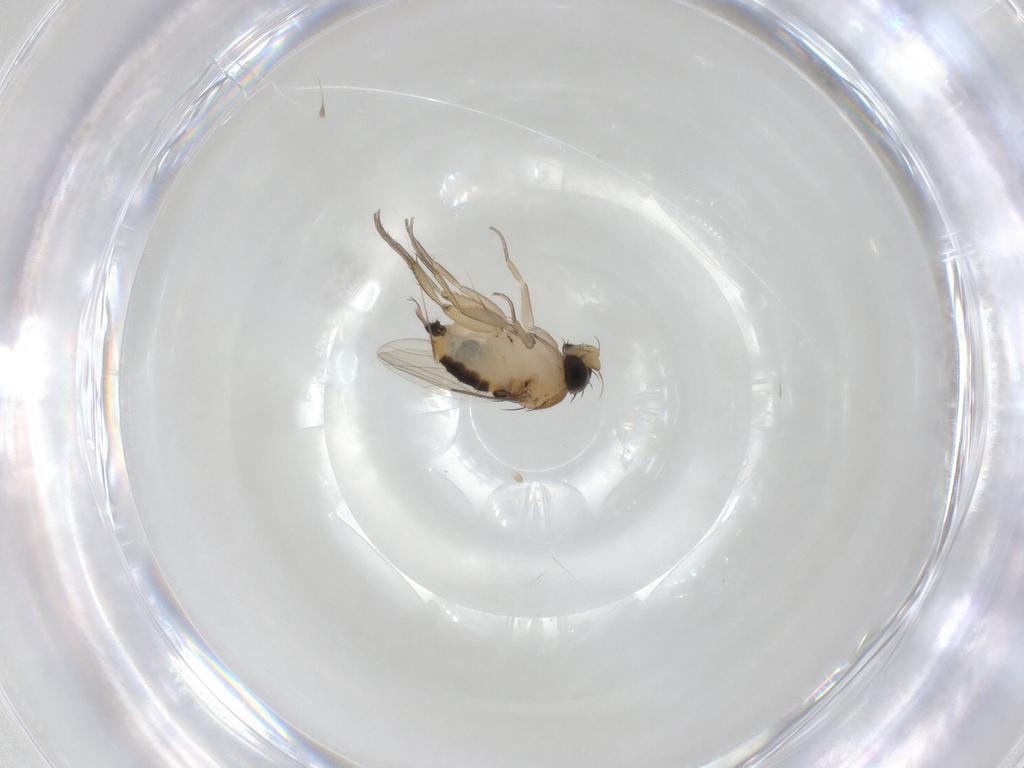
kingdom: Animalia
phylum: Arthropoda
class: Insecta
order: Diptera
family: Phoridae
